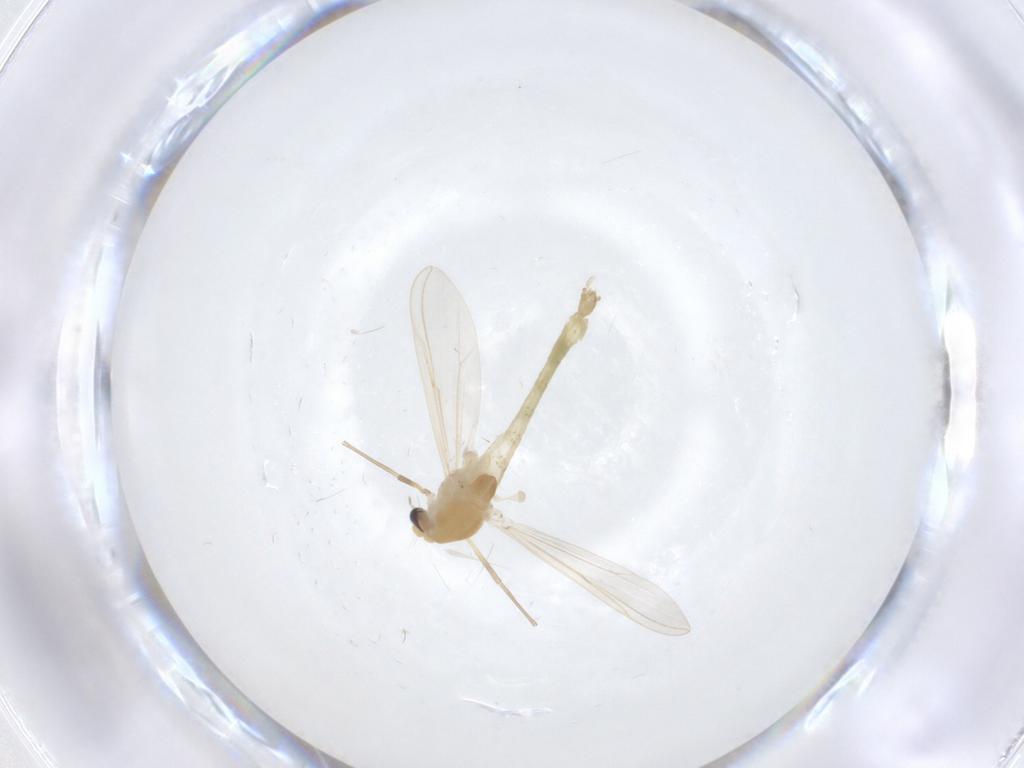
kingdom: Animalia
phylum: Arthropoda
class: Insecta
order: Diptera
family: Chironomidae
